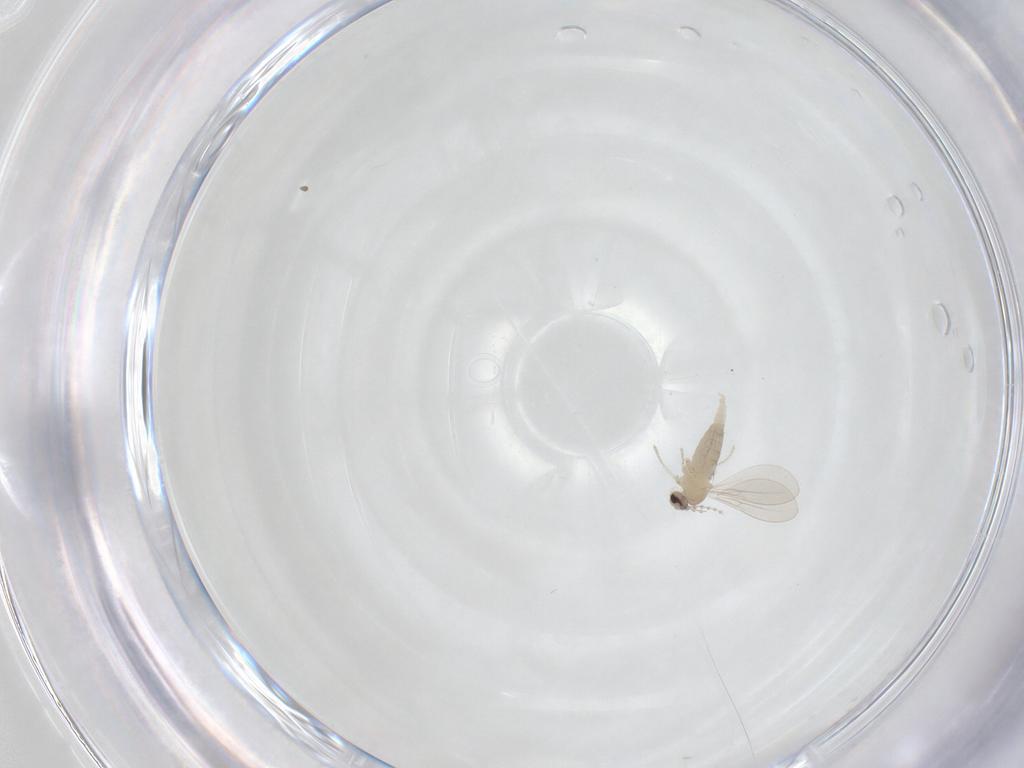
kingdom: Animalia
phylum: Arthropoda
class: Insecta
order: Diptera
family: Cecidomyiidae
